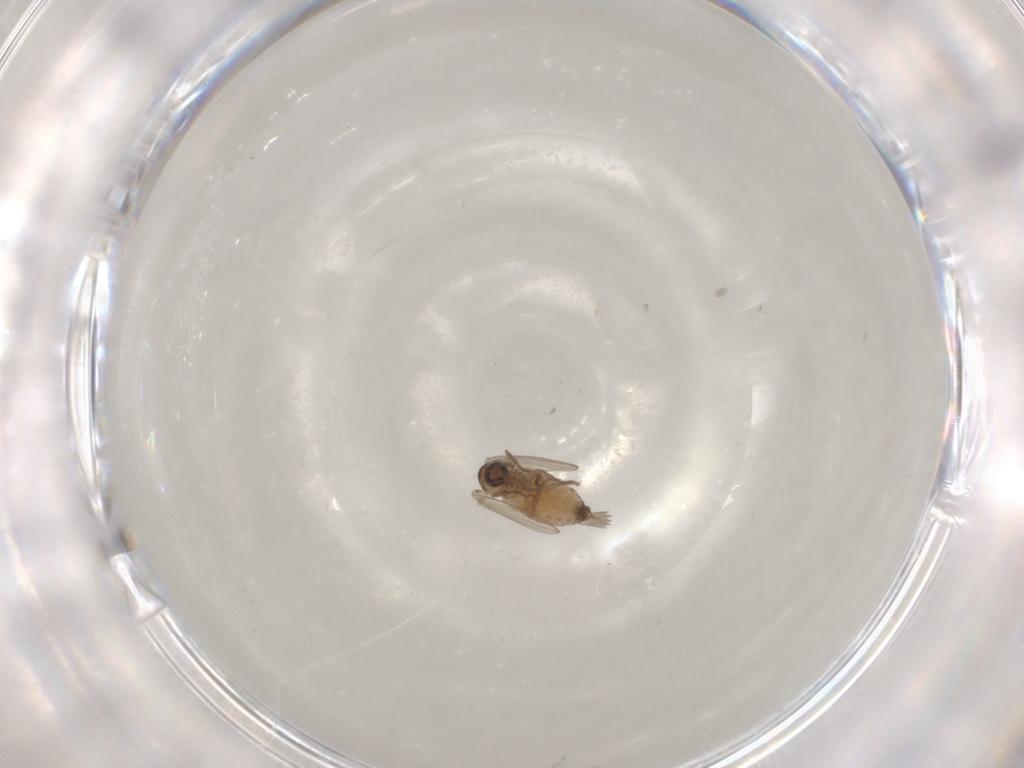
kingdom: Animalia
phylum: Arthropoda
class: Insecta
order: Diptera
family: Psychodidae
